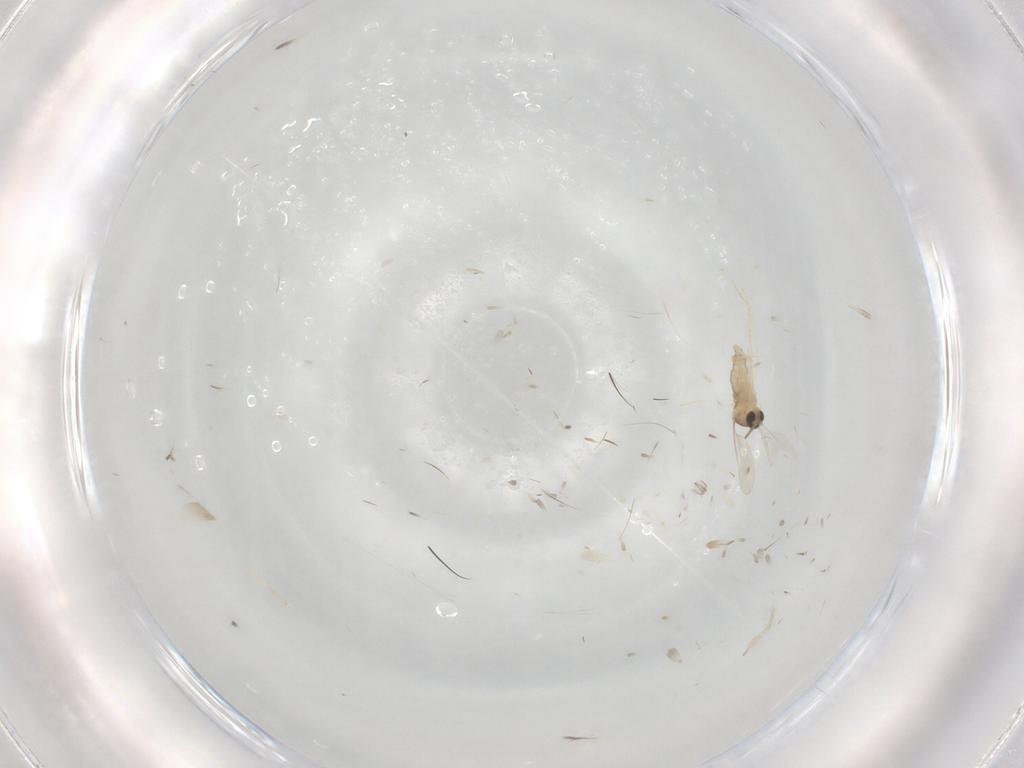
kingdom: Animalia
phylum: Arthropoda
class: Insecta
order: Diptera
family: Cecidomyiidae
